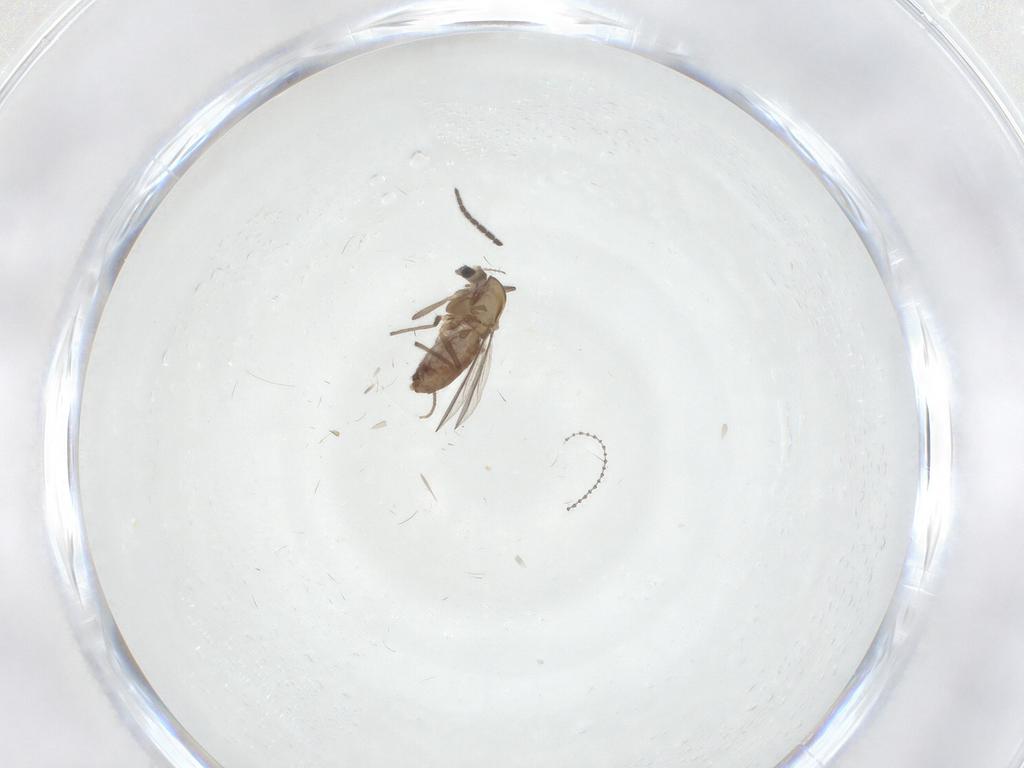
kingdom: Animalia
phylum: Arthropoda
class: Insecta
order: Diptera
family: Chironomidae
